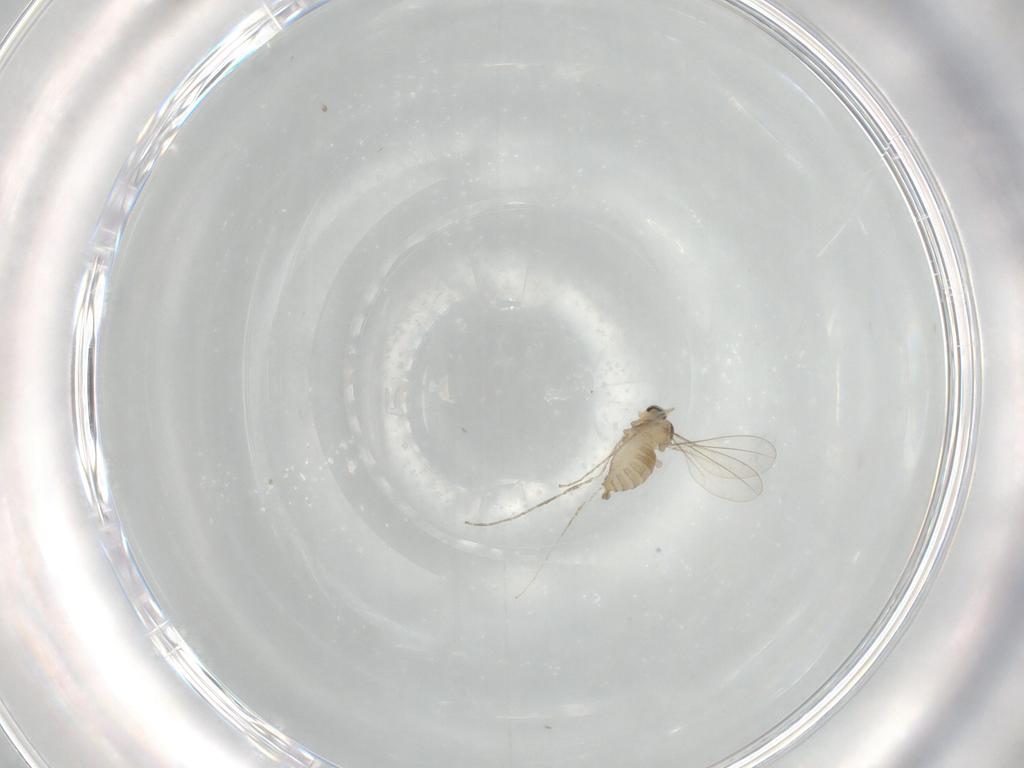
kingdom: Animalia
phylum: Arthropoda
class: Insecta
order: Diptera
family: Cecidomyiidae
